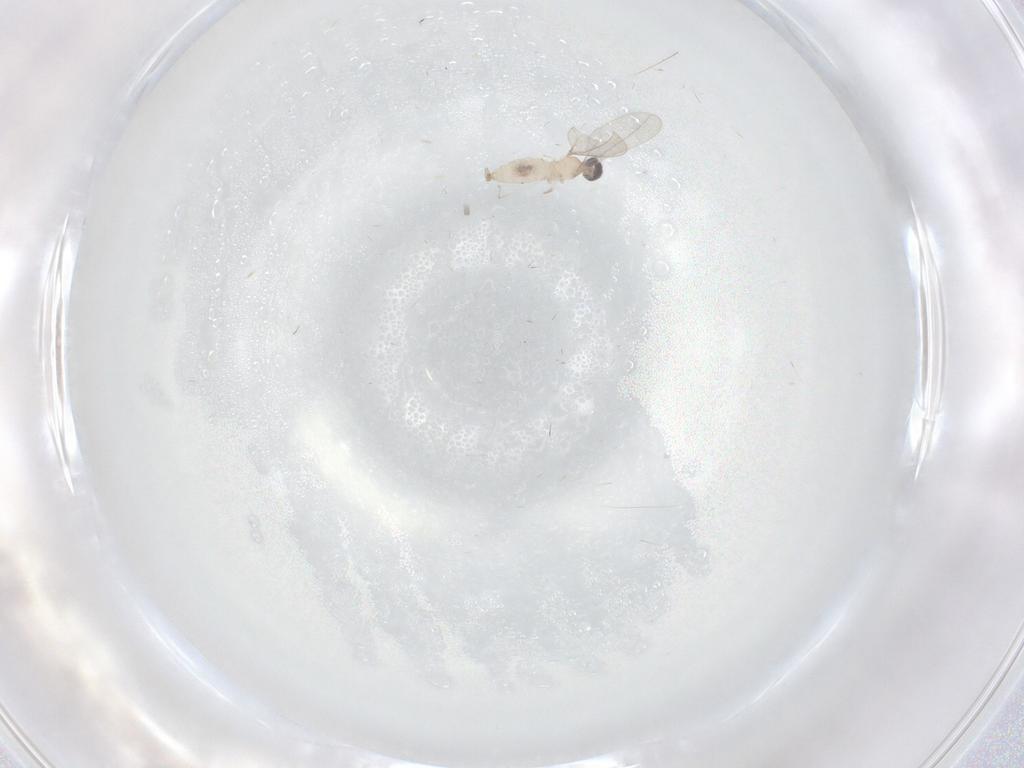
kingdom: Animalia
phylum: Arthropoda
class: Insecta
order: Diptera
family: Cecidomyiidae
